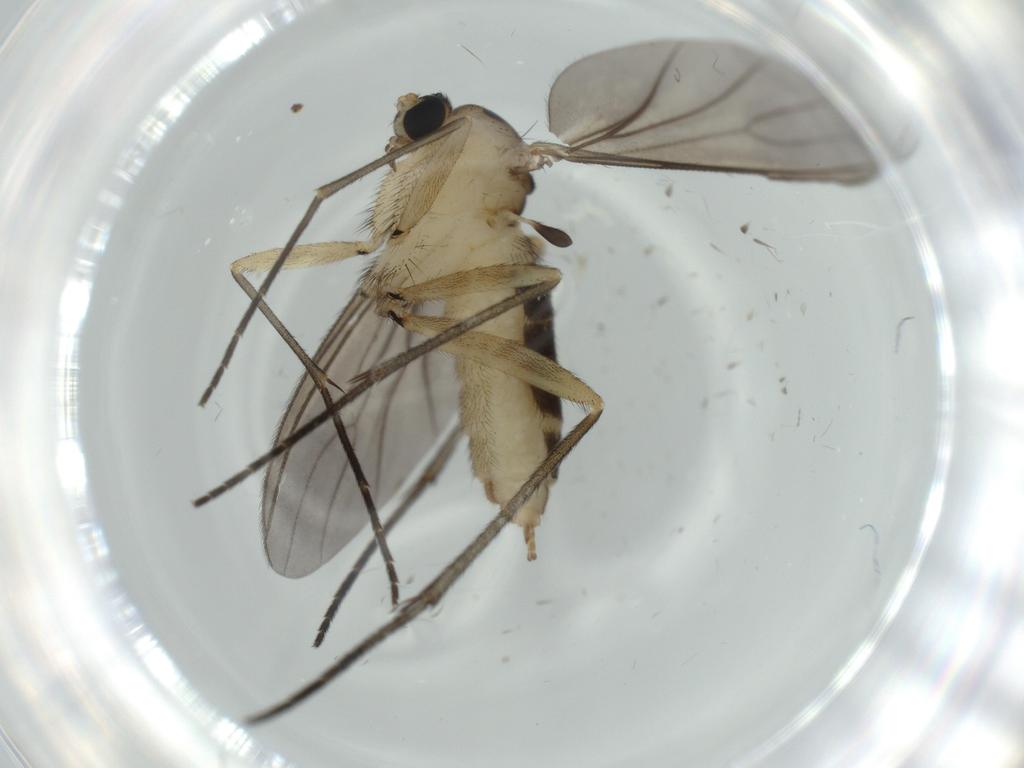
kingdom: Animalia
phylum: Arthropoda
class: Insecta
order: Diptera
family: Sciaridae
